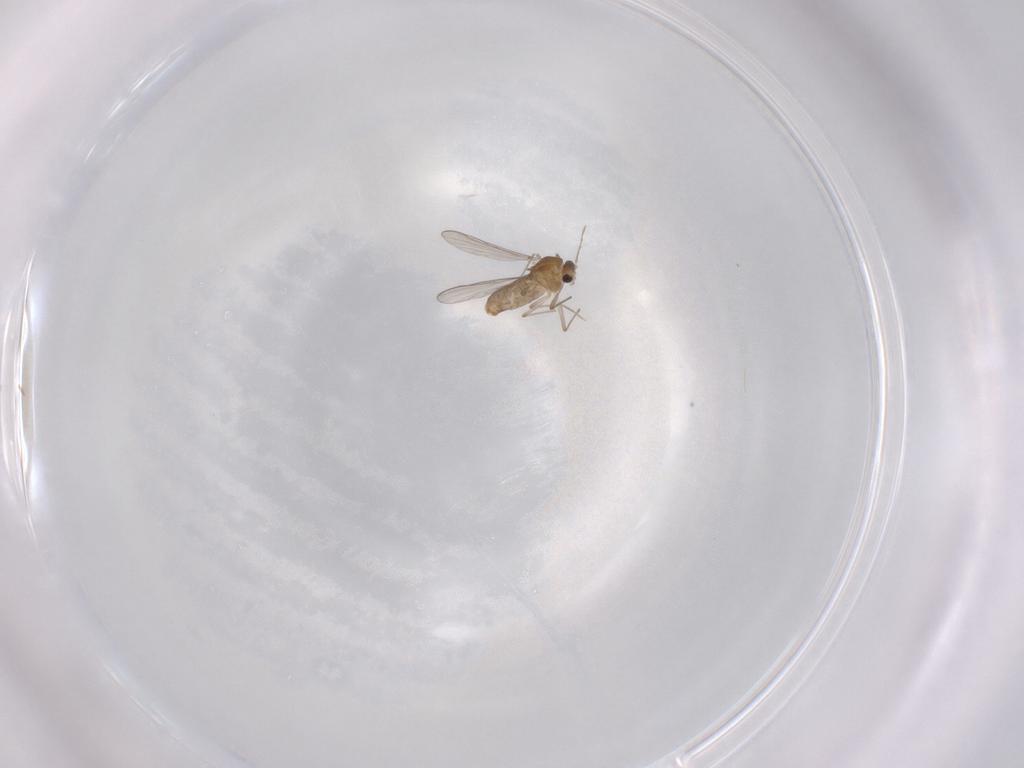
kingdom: Animalia
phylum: Arthropoda
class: Insecta
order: Diptera
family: Chironomidae
